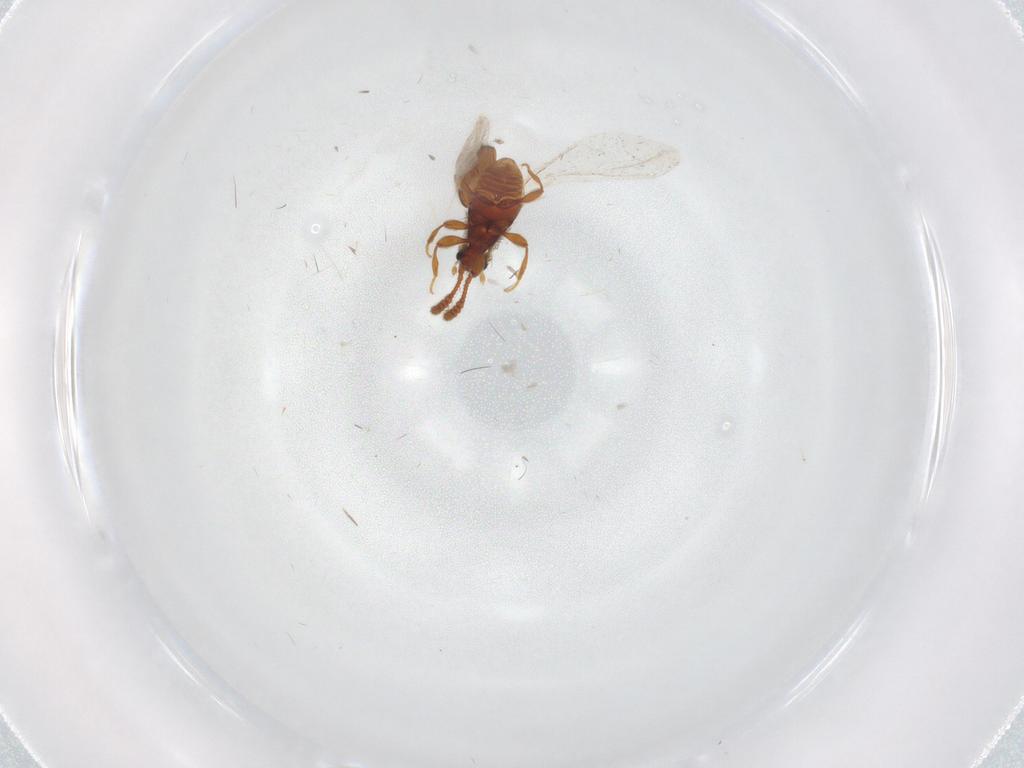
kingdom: Animalia
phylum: Arthropoda
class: Insecta
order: Coleoptera
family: Staphylinidae
